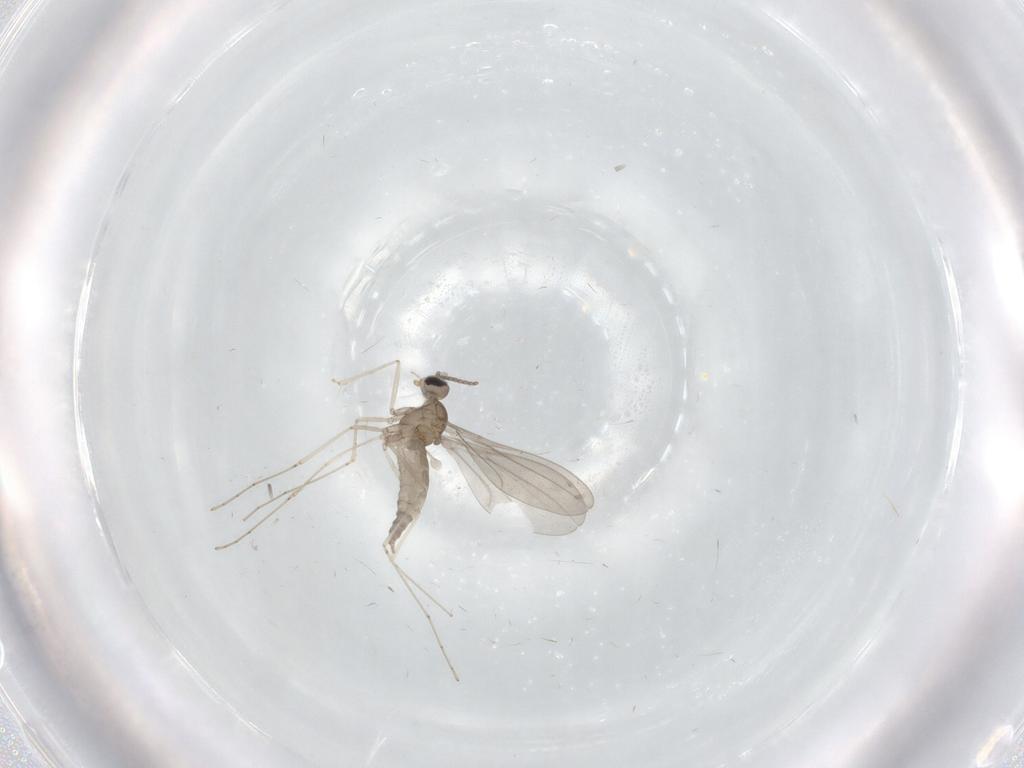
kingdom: Animalia
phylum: Arthropoda
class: Insecta
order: Diptera
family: Cecidomyiidae
